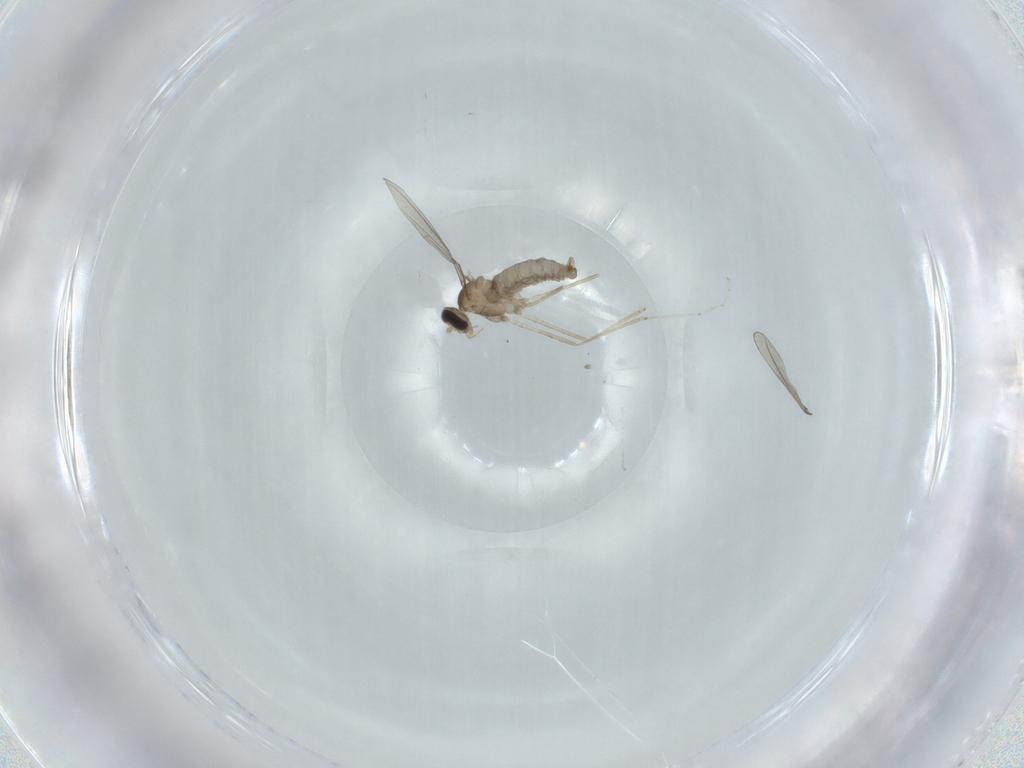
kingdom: Animalia
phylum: Arthropoda
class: Insecta
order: Diptera
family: Cecidomyiidae
